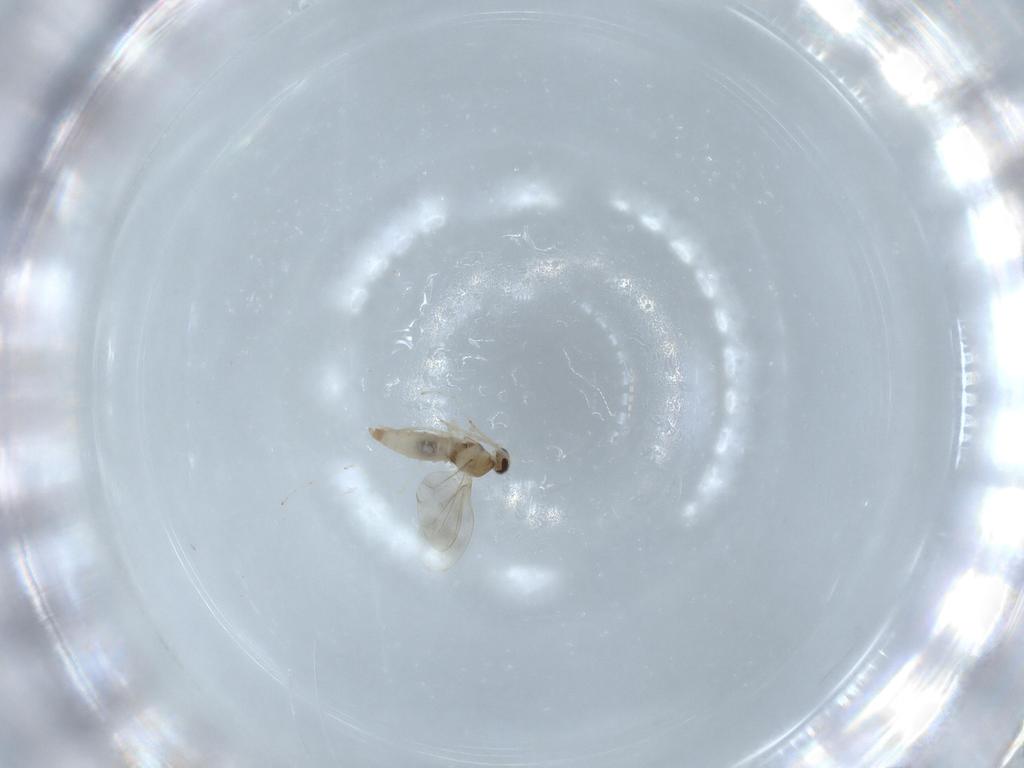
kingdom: Animalia
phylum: Arthropoda
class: Insecta
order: Diptera
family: Cecidomyiidae
